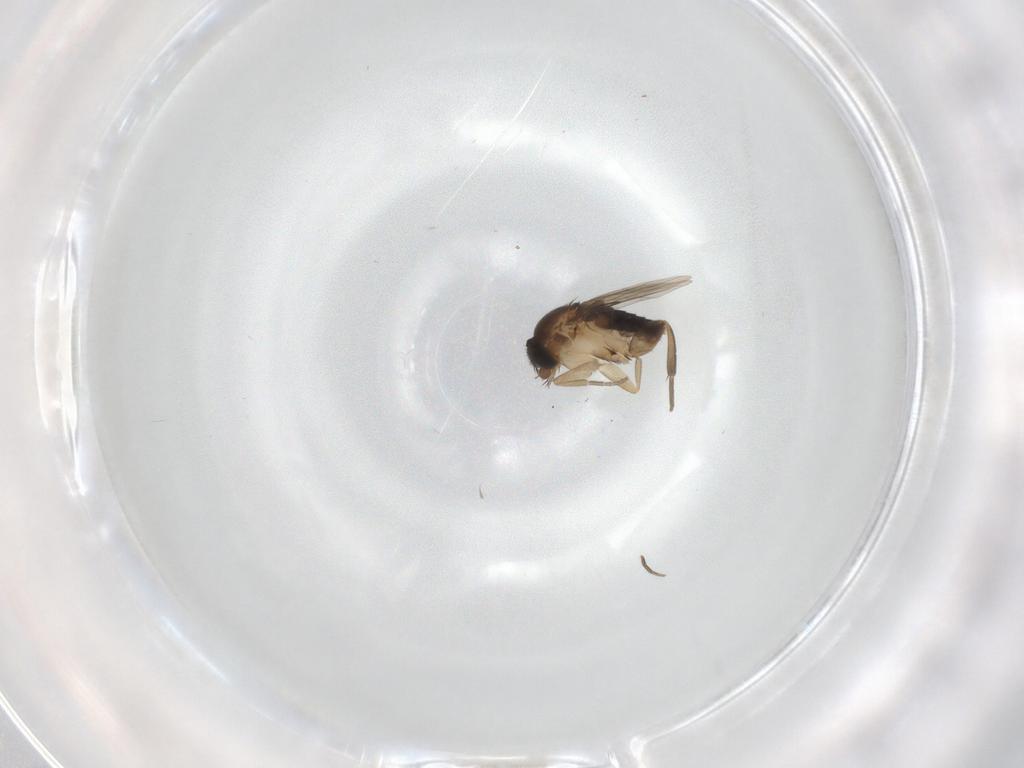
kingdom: Animalia
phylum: Arthropoda
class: Insecta
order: Diptera
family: Phoridae
